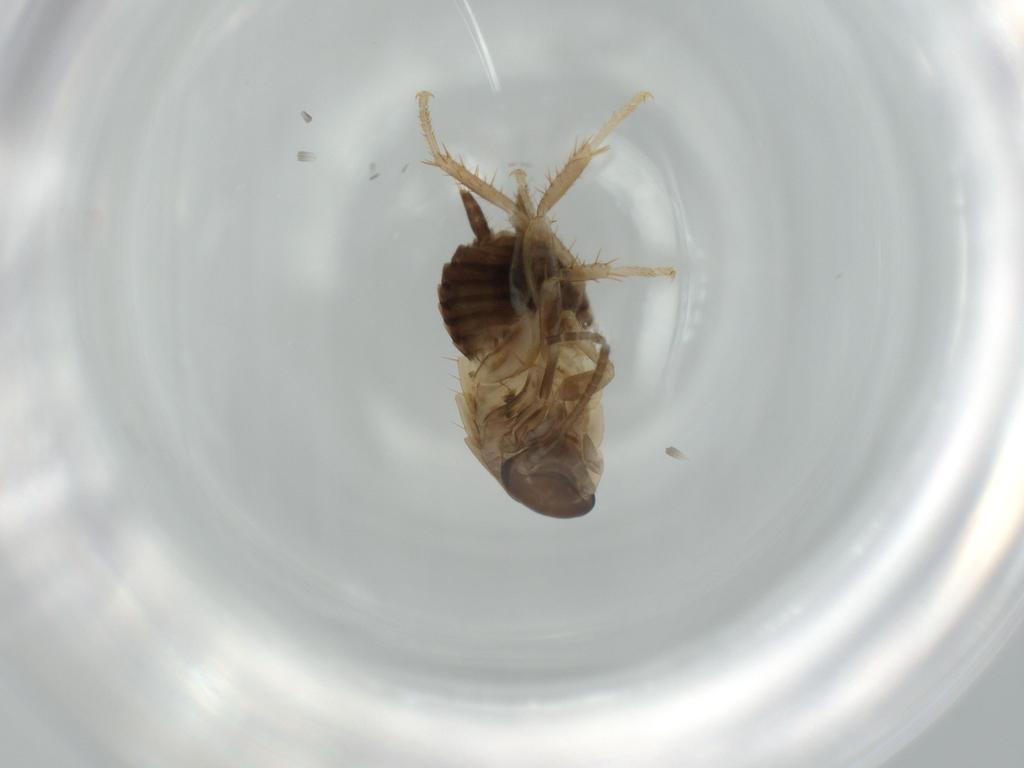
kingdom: Animalia
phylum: Arthropoda
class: Insecta
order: Blattodea
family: Ectobiidae
